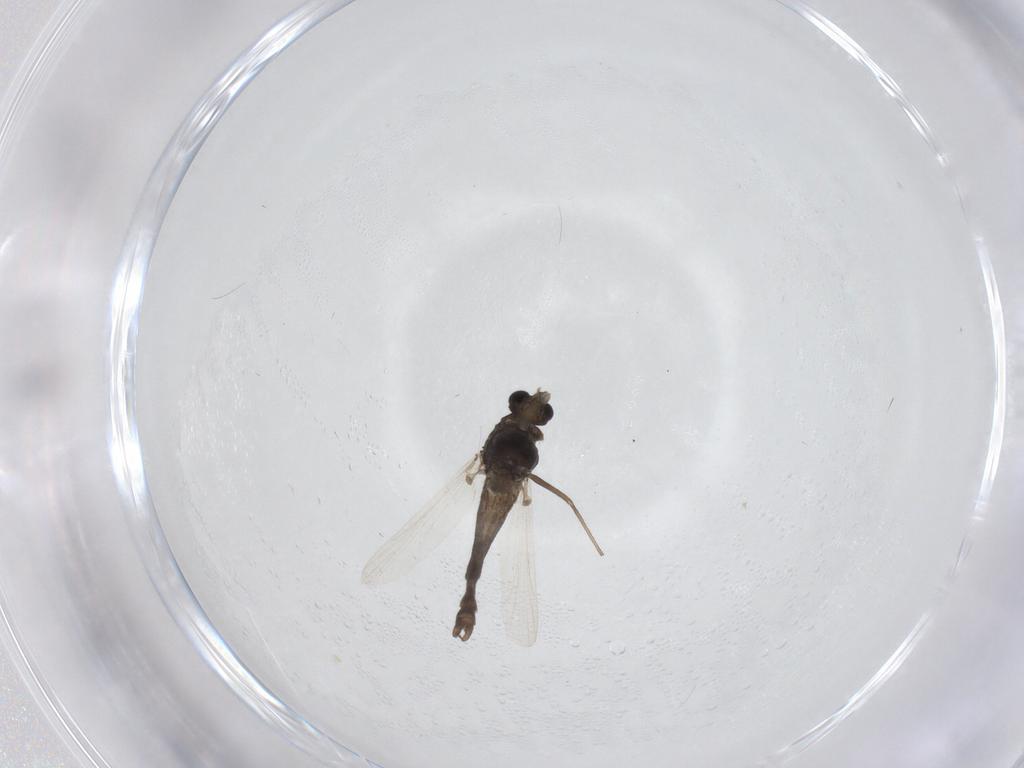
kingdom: Animalia
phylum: Arthropoda
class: Insecta
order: Diptera
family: Chironomidae
